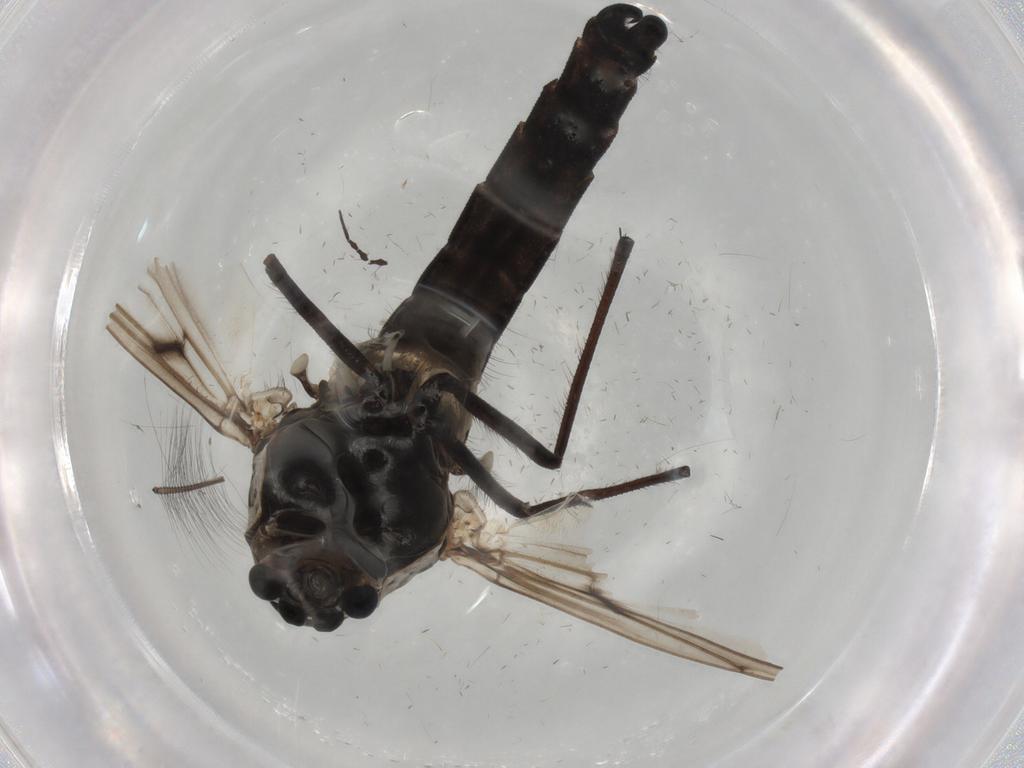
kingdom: Animalia
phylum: Arthropoda
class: Insecta
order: Diptera
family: Chironomidae
